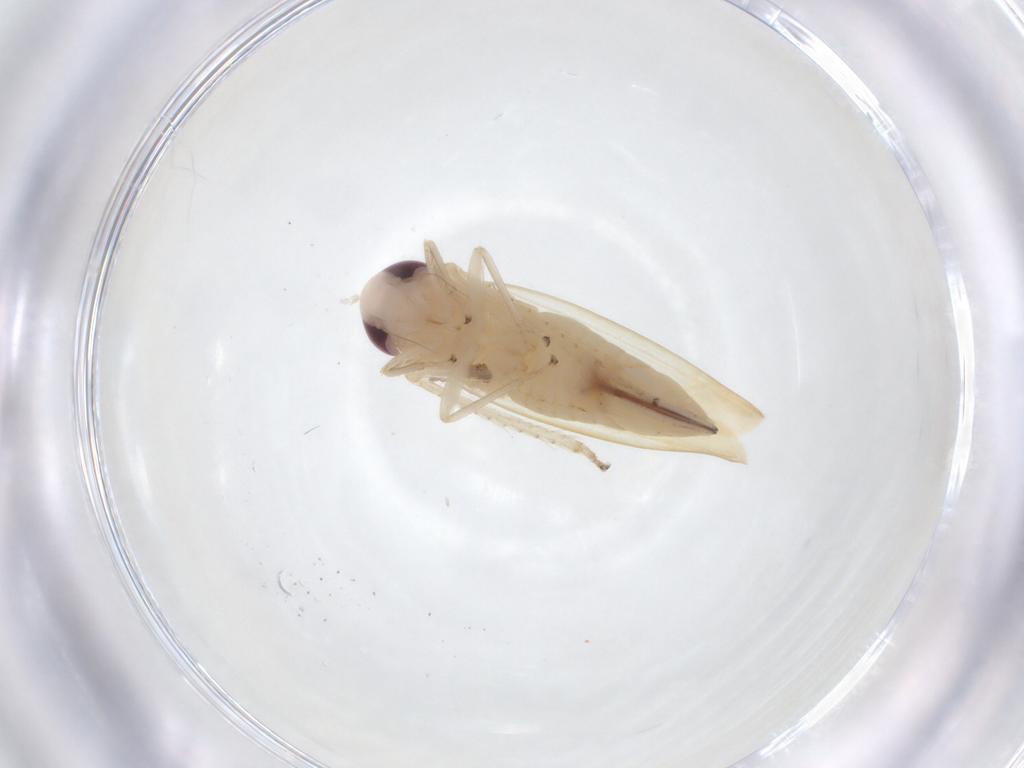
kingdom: Animalia
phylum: Arthropoda
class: Insecta
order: Hemiptera
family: Cicadellidae
